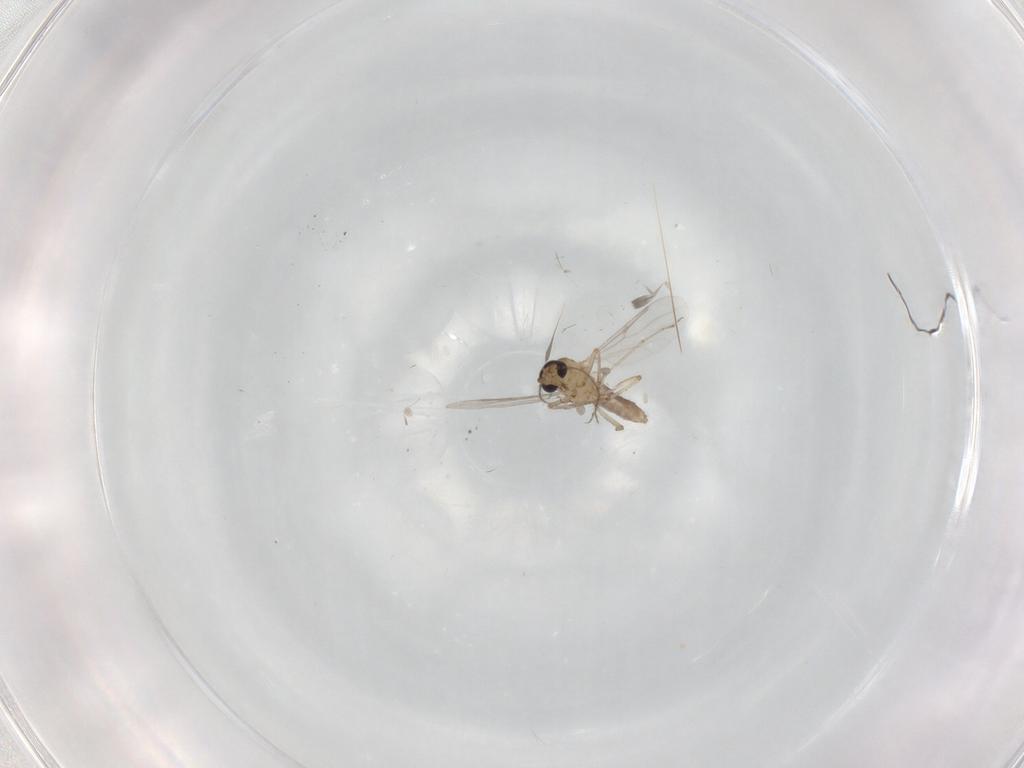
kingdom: Animalia
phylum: Arthropoda
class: Insecta
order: Diptera
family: Ceratopogonidae
